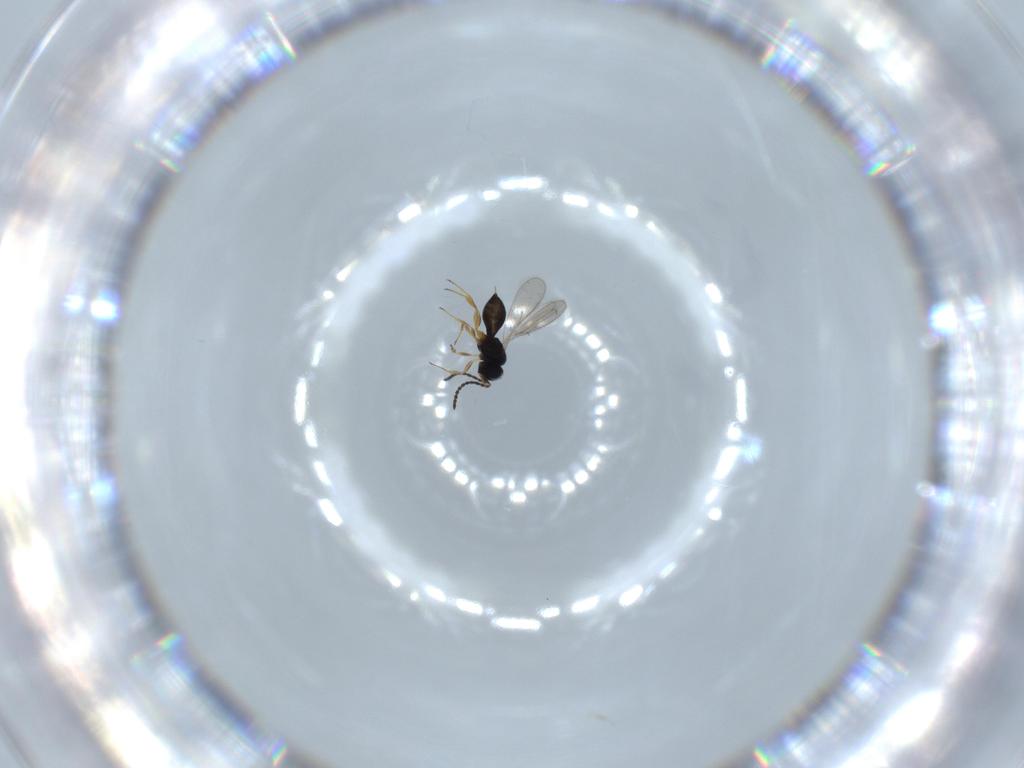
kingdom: Animalia
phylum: Arthropoda
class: Insecta
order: Hymenoptera
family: Scelionidae
